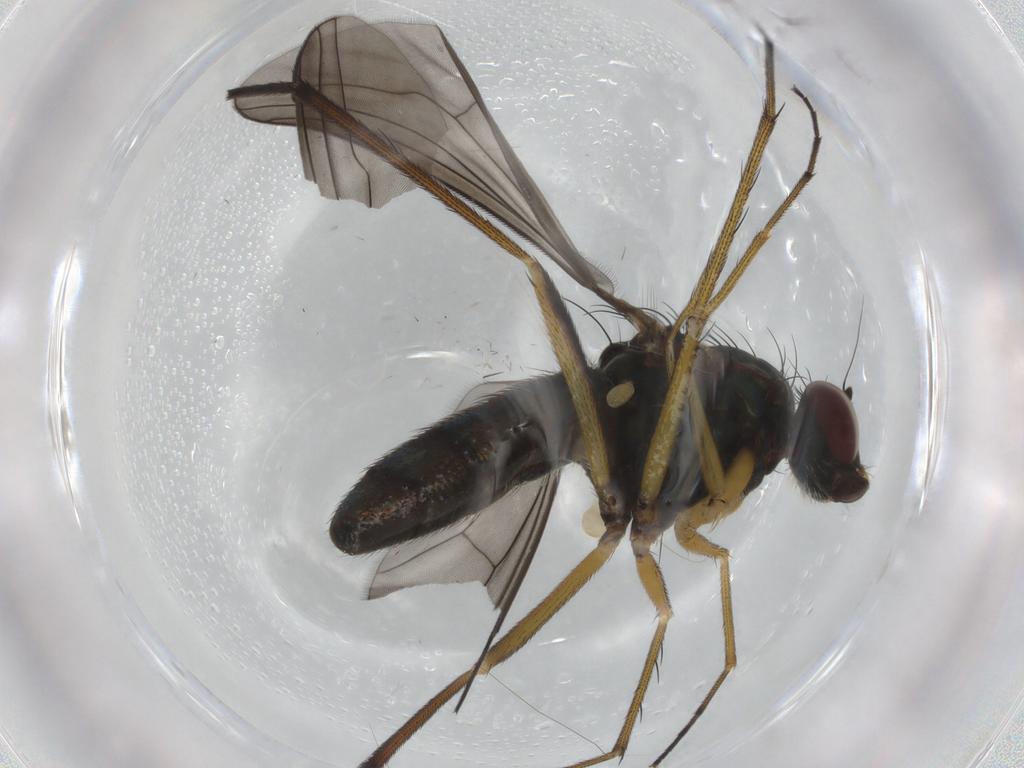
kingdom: Animalia
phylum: Arthropoda
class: Insecta
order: Diptera
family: Dolichopodidae
